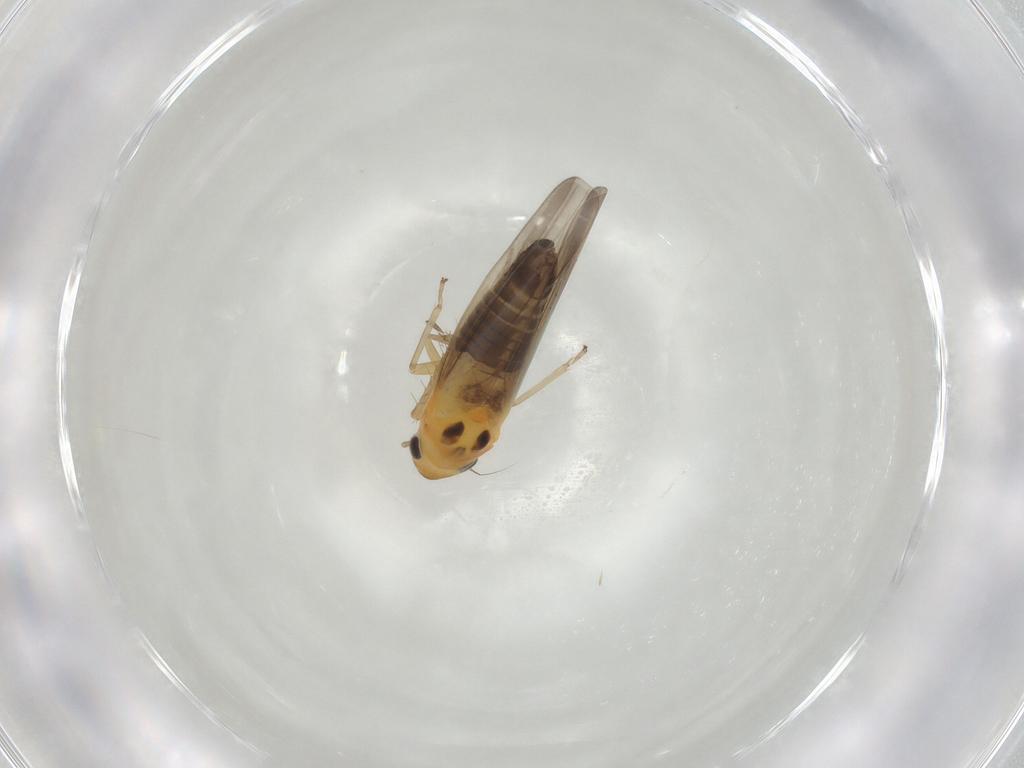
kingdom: Animalia
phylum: Arthropoda
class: Insecta
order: Hemiptera
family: Cicadellidae
